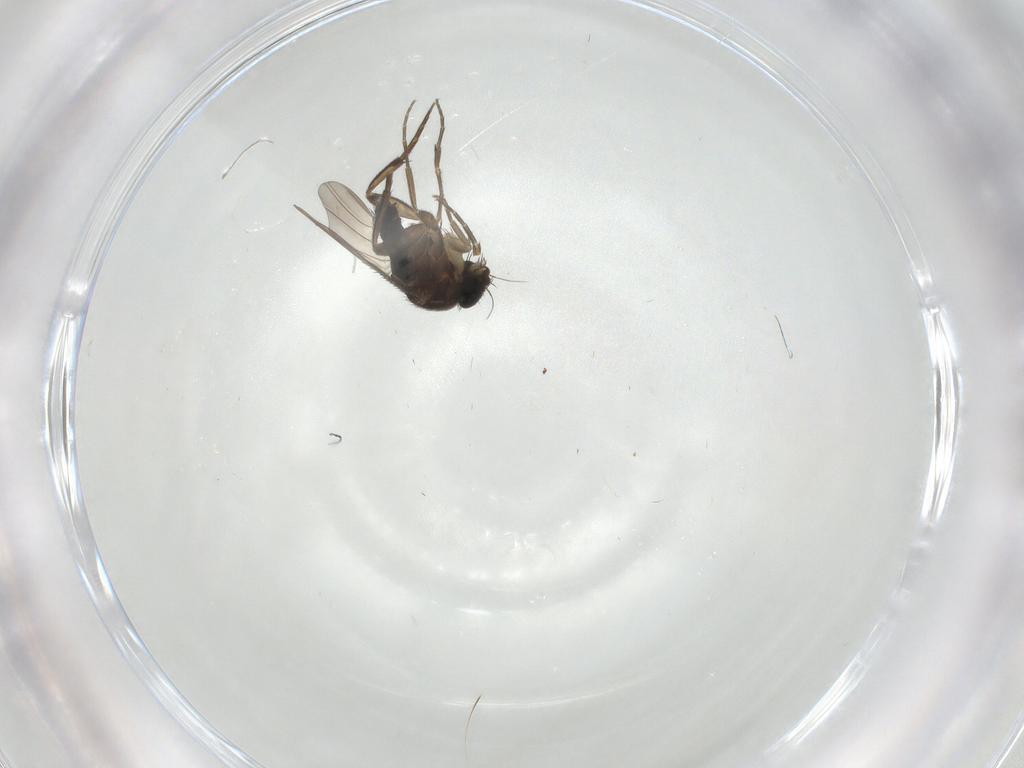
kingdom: Animalia
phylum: Arthropoda
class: Insecta
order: Diptera
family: Phoridae
